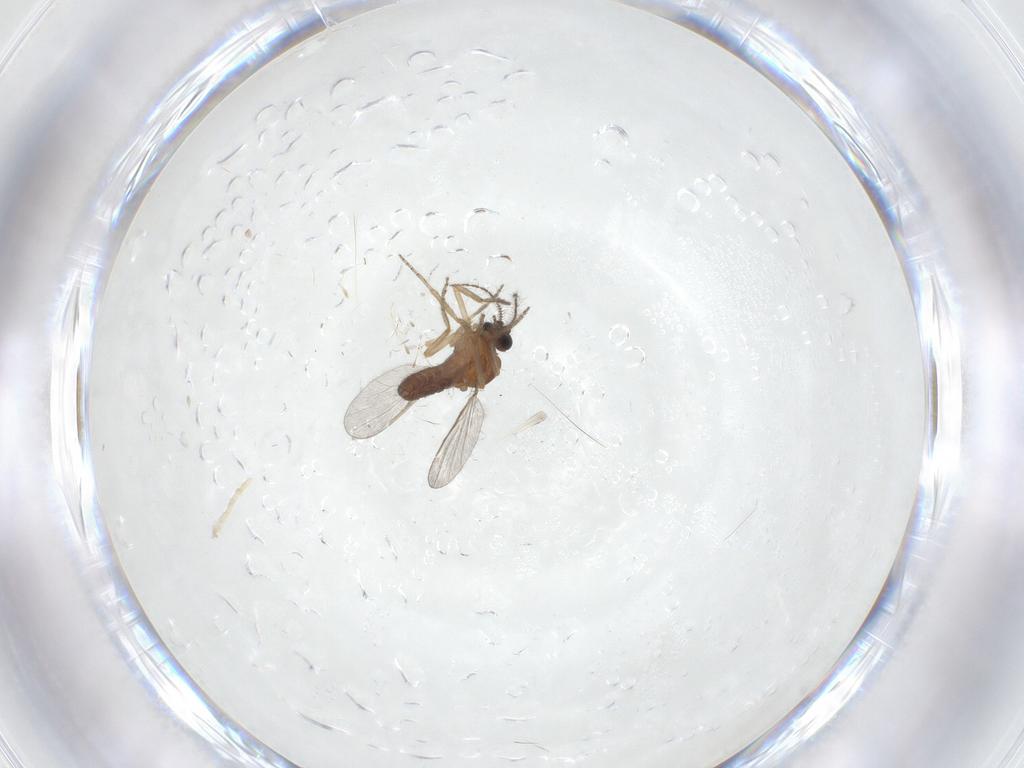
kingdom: Animalia
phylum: Arthropoda
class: Insecta
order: Diptera
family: Ceratopogonidae
